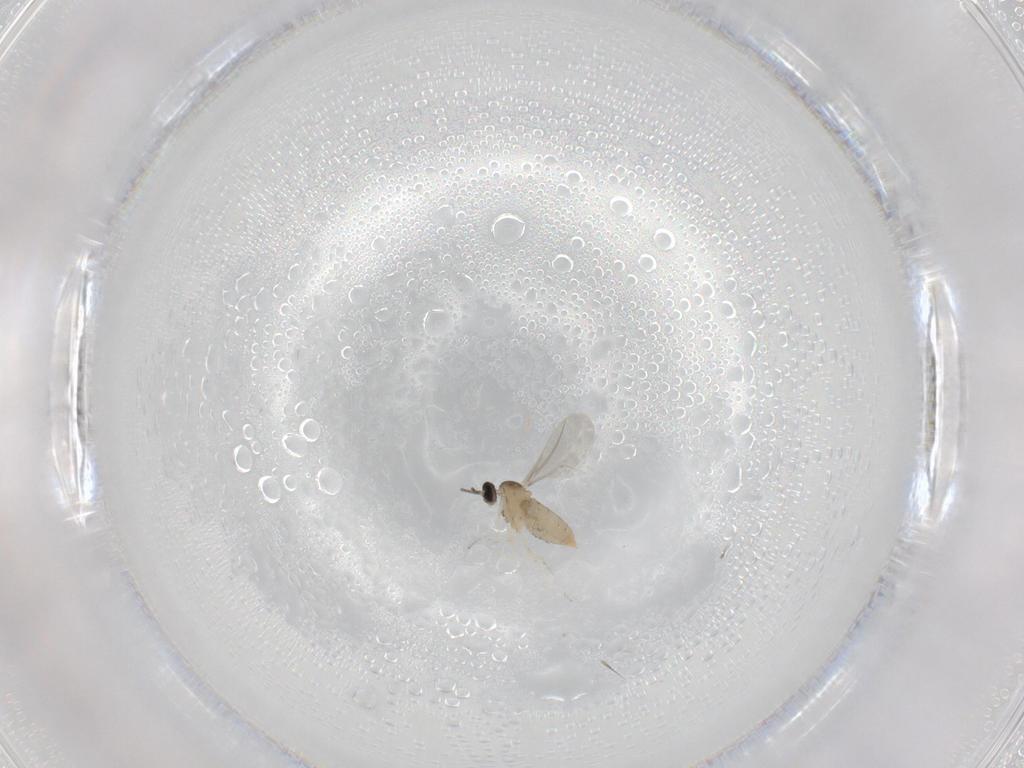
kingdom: Animalia
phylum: Arthropoda
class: Insecta
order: Diptera
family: Cecidomyiidae
